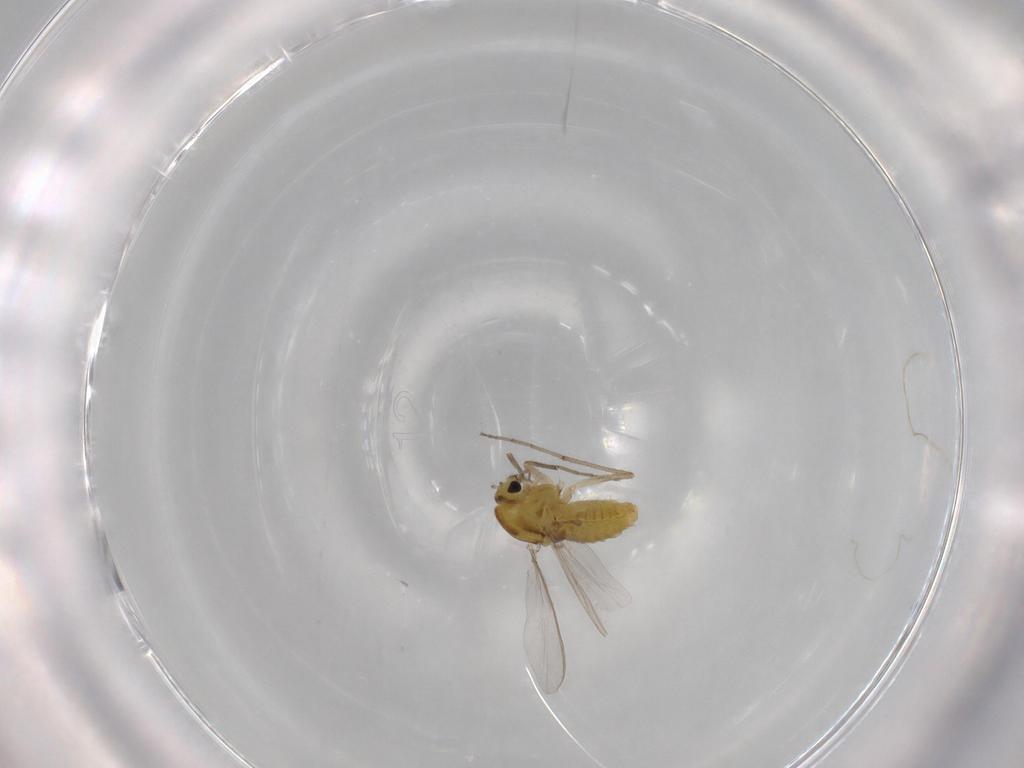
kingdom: Animalia
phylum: Arthropoda
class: Insecta
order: Diptera
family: Chironomidae
